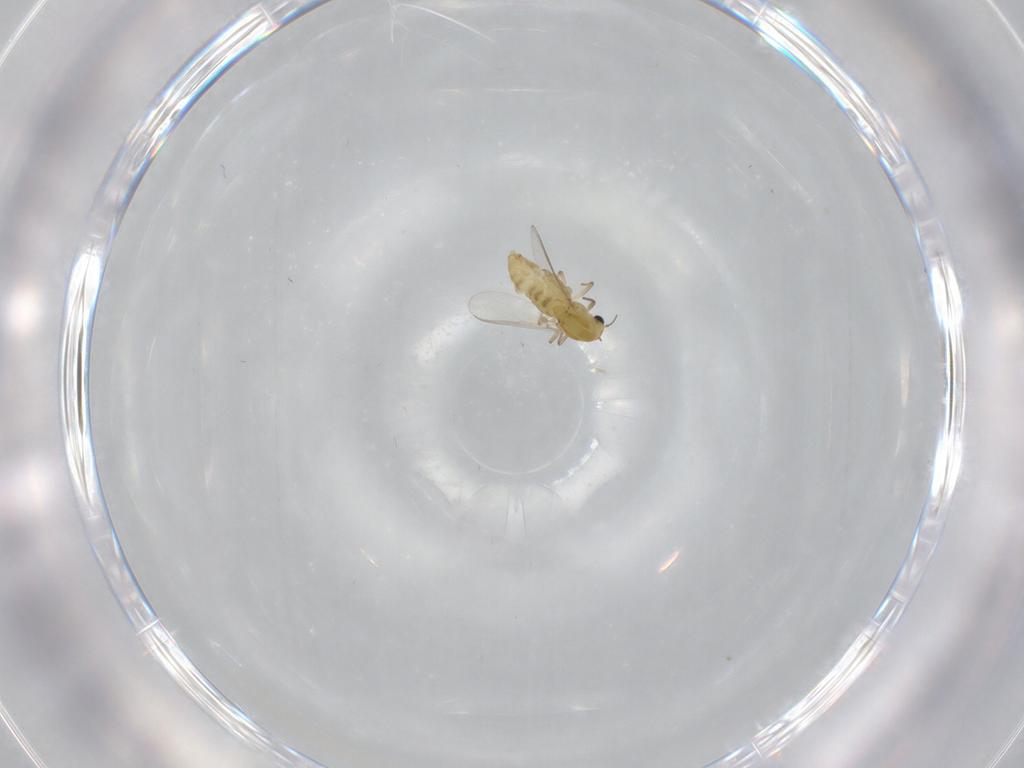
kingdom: Animalia
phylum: Arthropoda
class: Insecta
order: Diptera
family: Chironomidae
